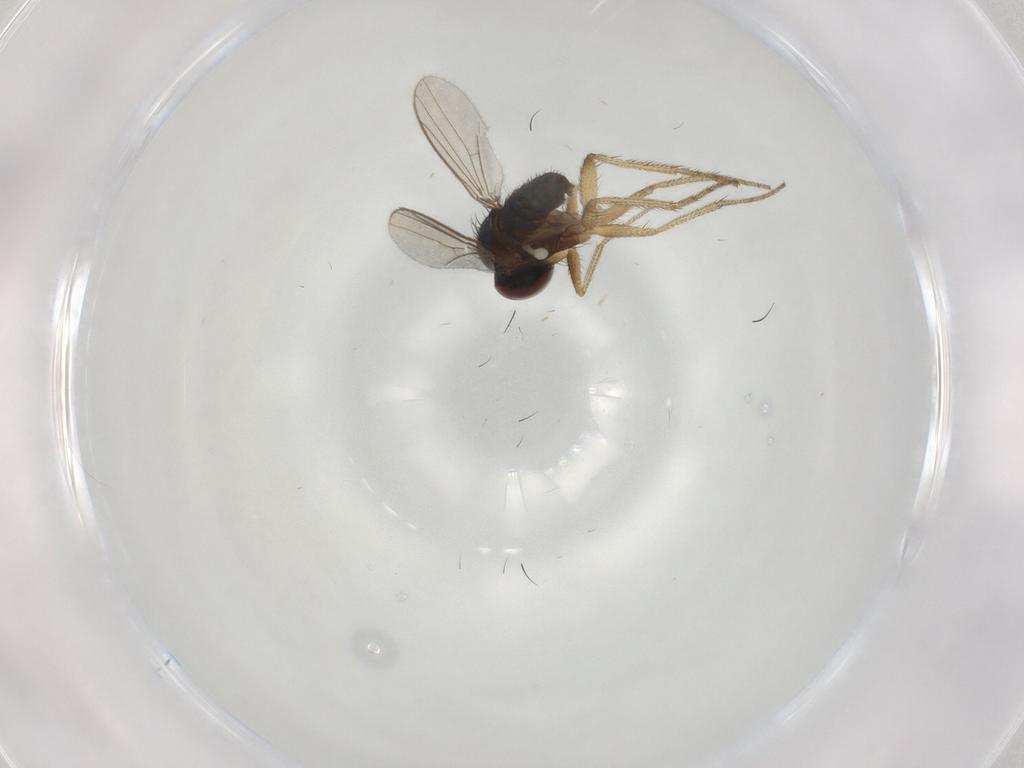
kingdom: Animalia
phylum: Arthropoda
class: Insecta
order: Diptera
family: Dolichopodidae
